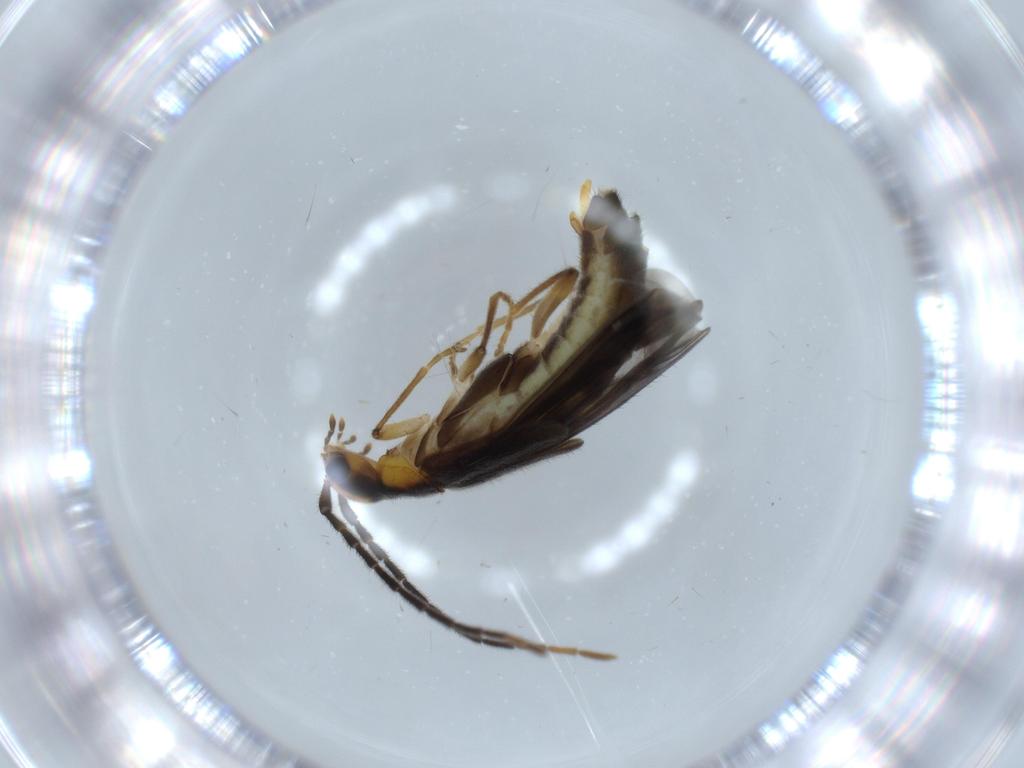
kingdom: Animalia
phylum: Arthropoda
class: Insecta
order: Coleoptera
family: Cantharidae
